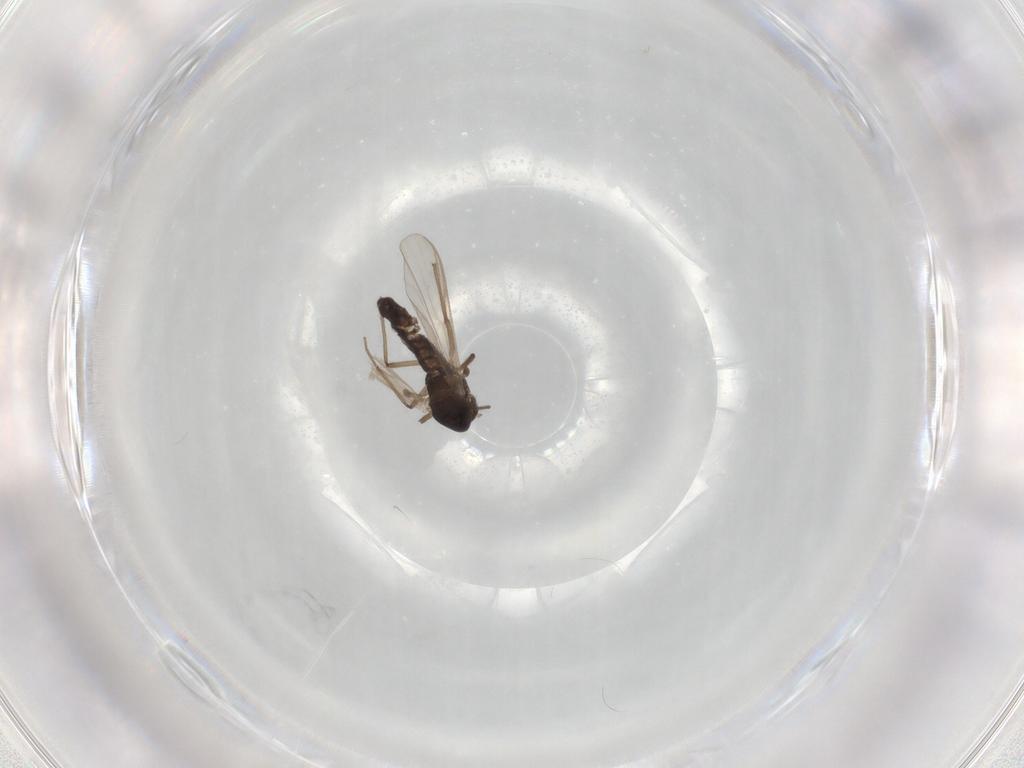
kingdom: Animalia
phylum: Arthropoda
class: Insecta
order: Diptera
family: Chironomidae
